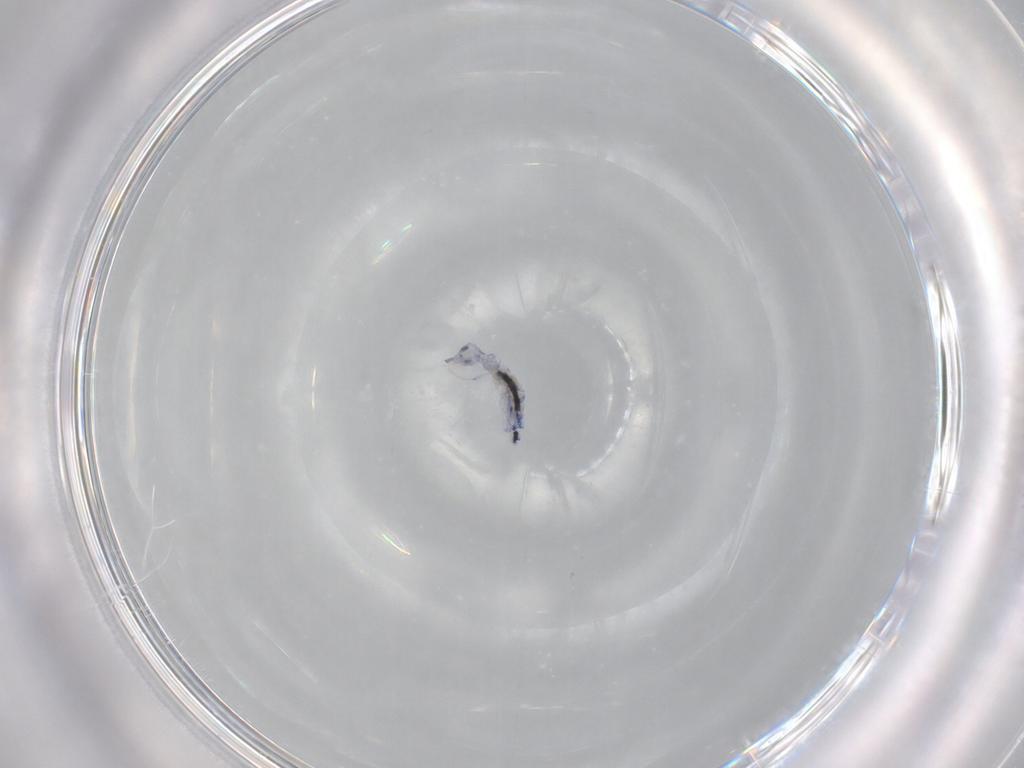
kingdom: Animalia
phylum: Arthropoda
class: Collembola
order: Entomobryomorpha
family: Entomobryidae
